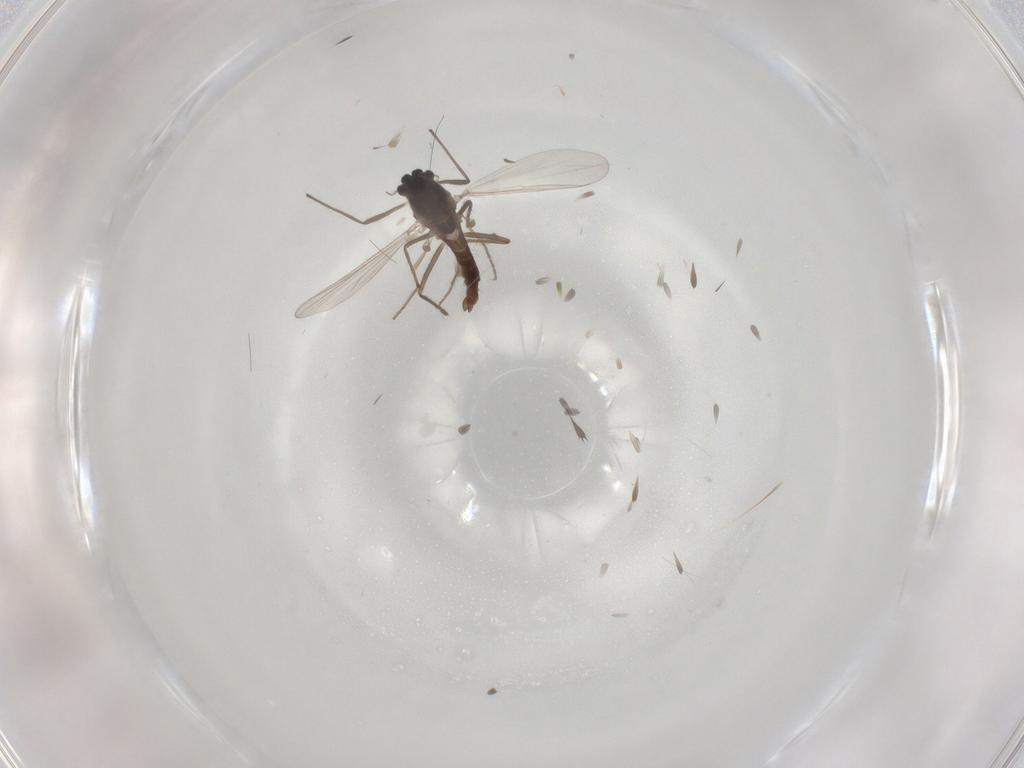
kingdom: Animalia
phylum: Arthropoda
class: Insecta
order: Diptera
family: Chironomidae
